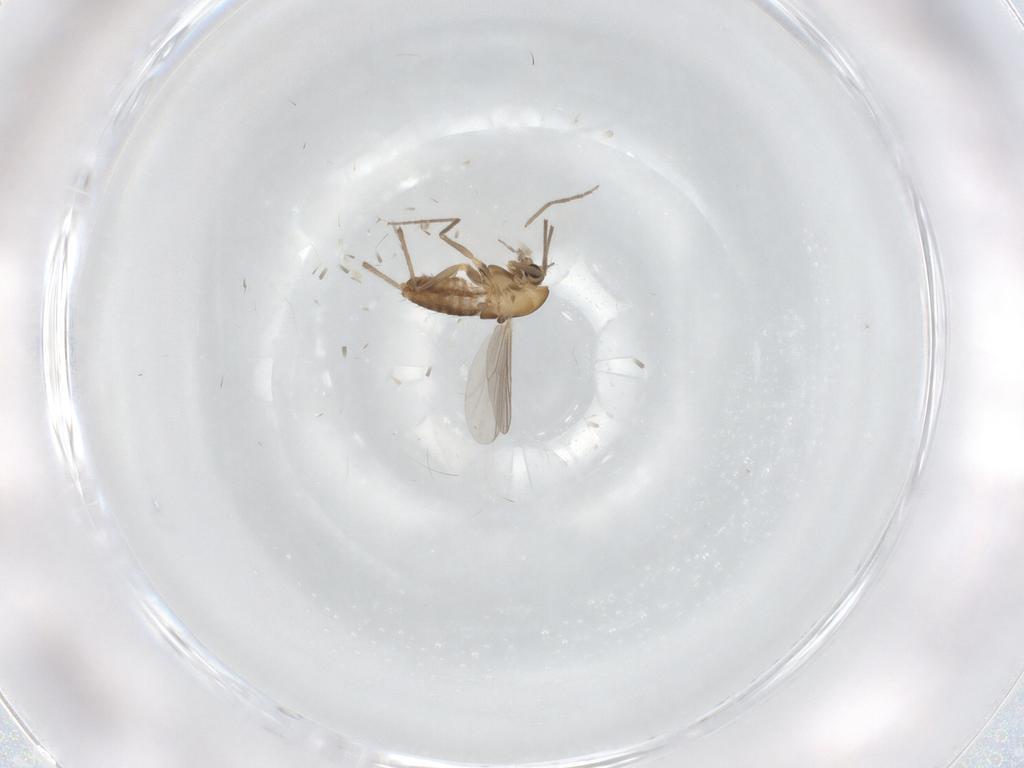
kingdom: Animalia
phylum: Arthropoda
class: Insecta
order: Diptera
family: Chironomidae
